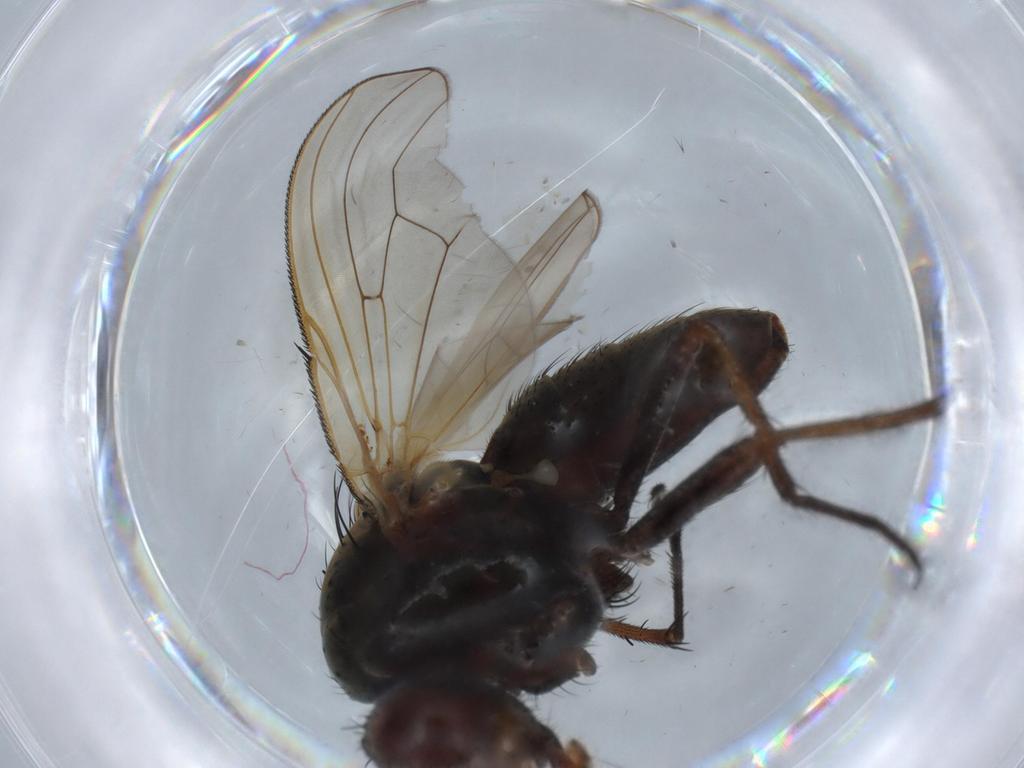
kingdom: Animalia
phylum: Arthropoda
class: Insecta
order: Diptera
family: Anthomyiidae
